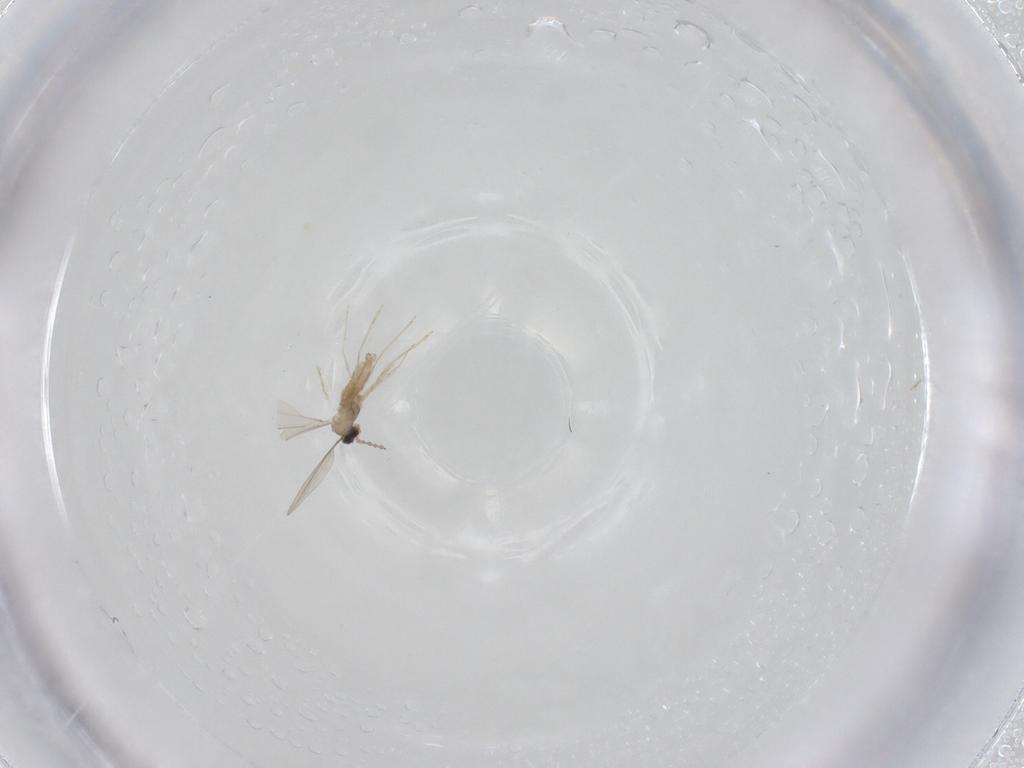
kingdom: Animalia
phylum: Arthropoda
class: Insecta
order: Diptera
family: Cecidomyiidae
